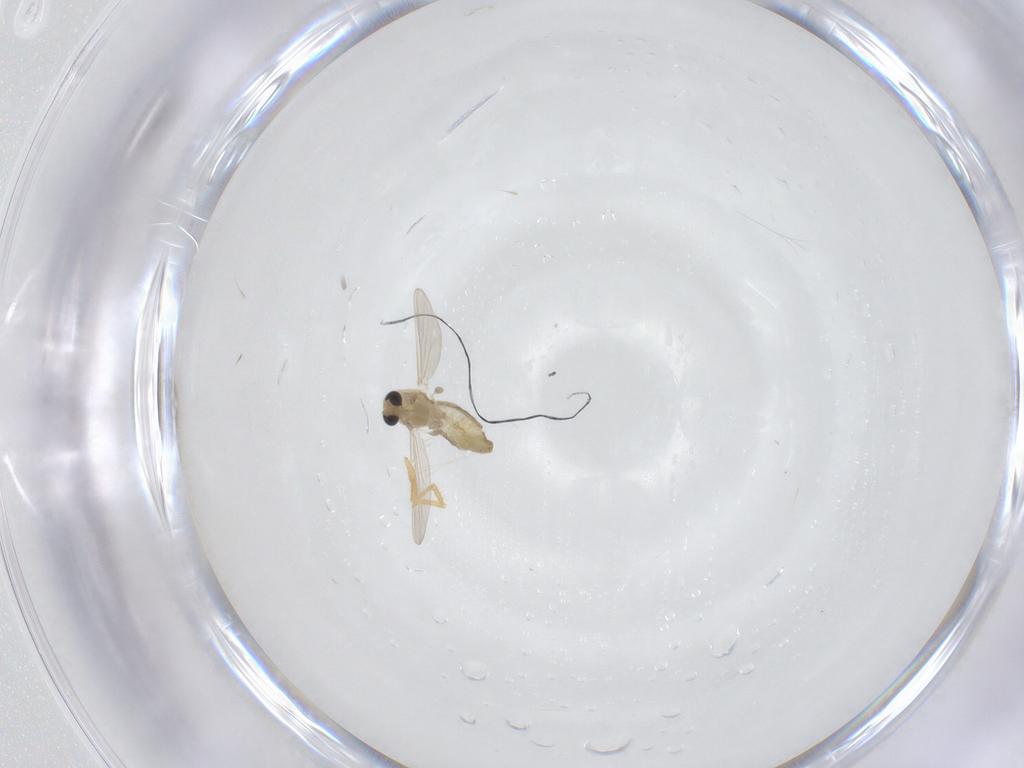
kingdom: Animalia
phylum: Arthropoda
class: Insecta
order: Diptera
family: Chironomidae
